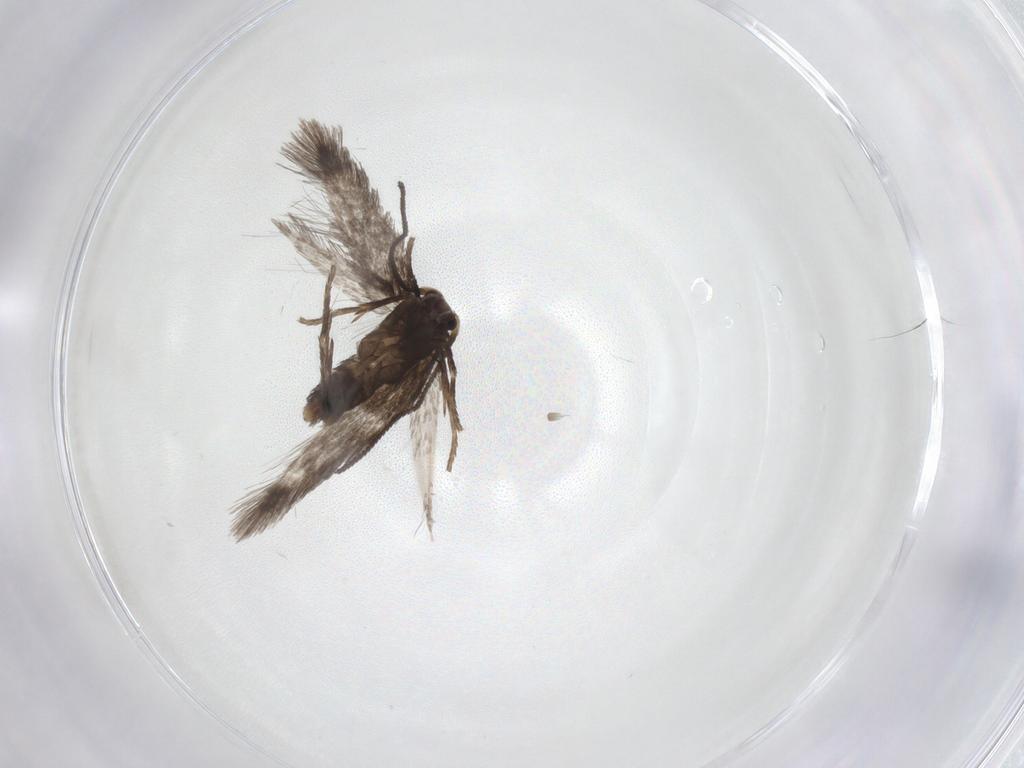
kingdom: Animalia
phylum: Arthropoda
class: Insecta
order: Lepidoptera
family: Nepticulidae
